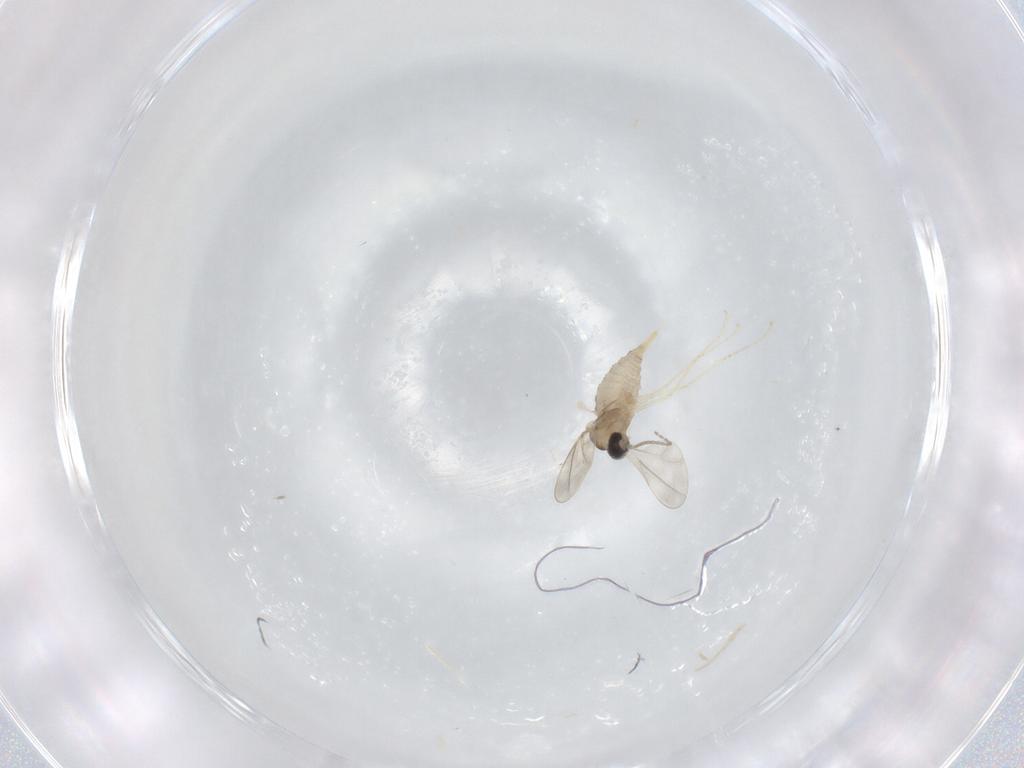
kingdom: Animalia
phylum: Arthropoda
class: Insecta
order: Diptera
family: Cecidomyiidae
